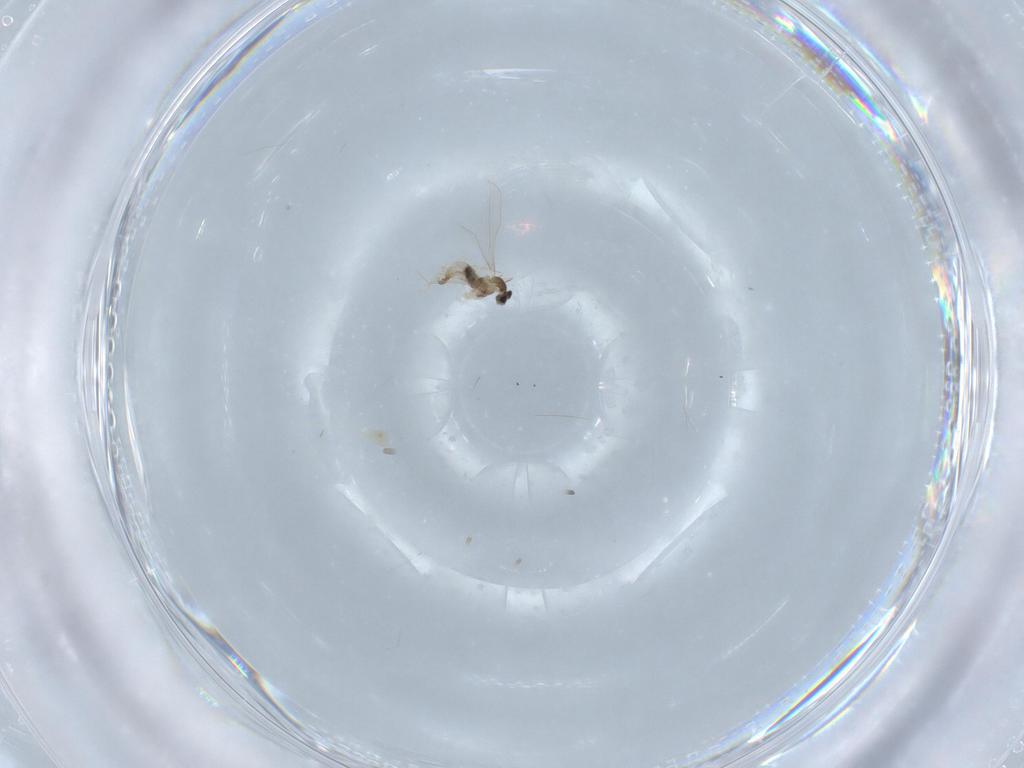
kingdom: Animalia
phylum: Arthropoda
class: Insecta
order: Diptera
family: Cecidomyiidae
